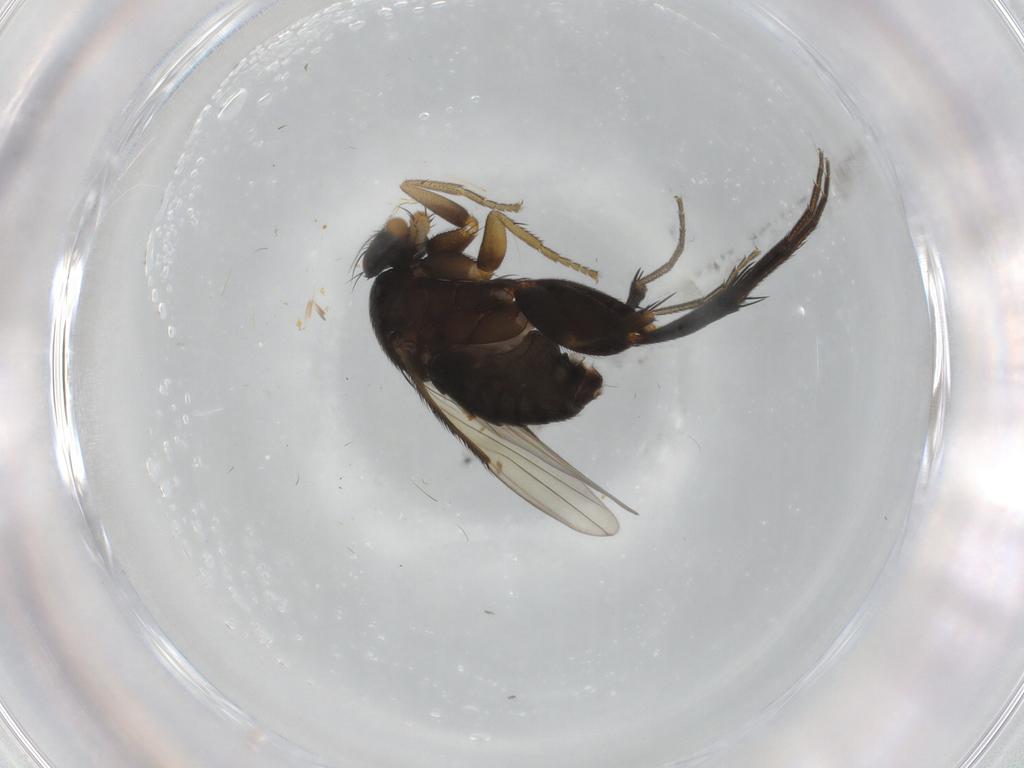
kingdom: Animalia
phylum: Arthropoda
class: Insecta
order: Diptera
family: Phoridae
